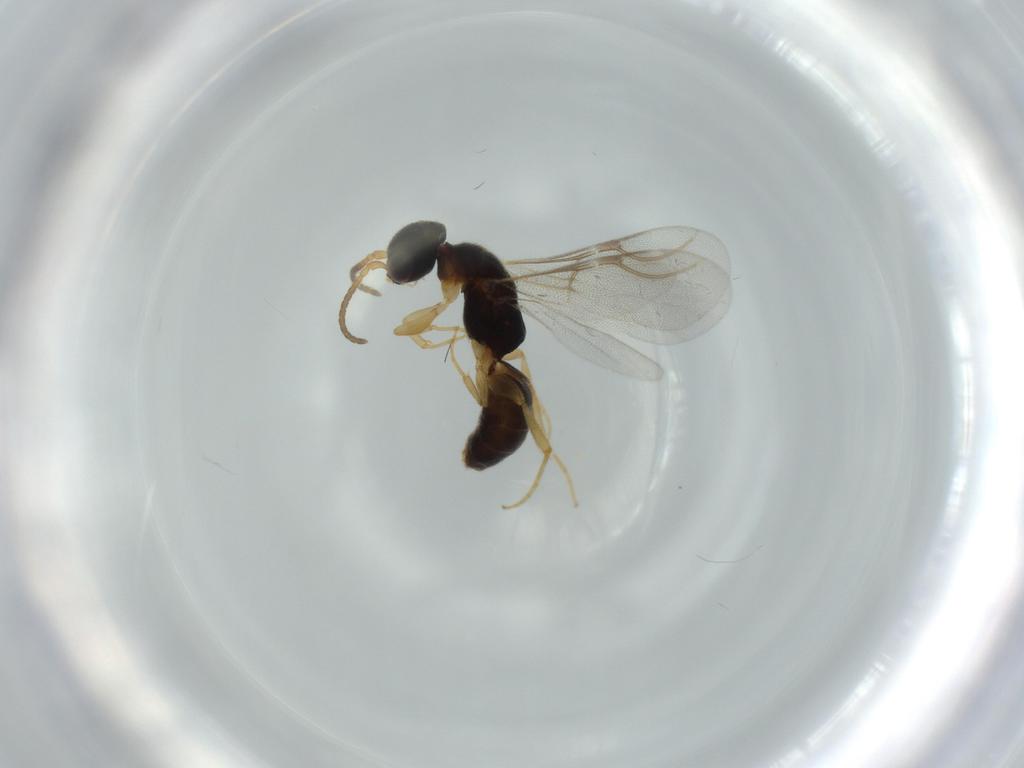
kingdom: Animalia
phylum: Arthropoda
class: Insecta
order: Hymenoptera
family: Bethylidae
